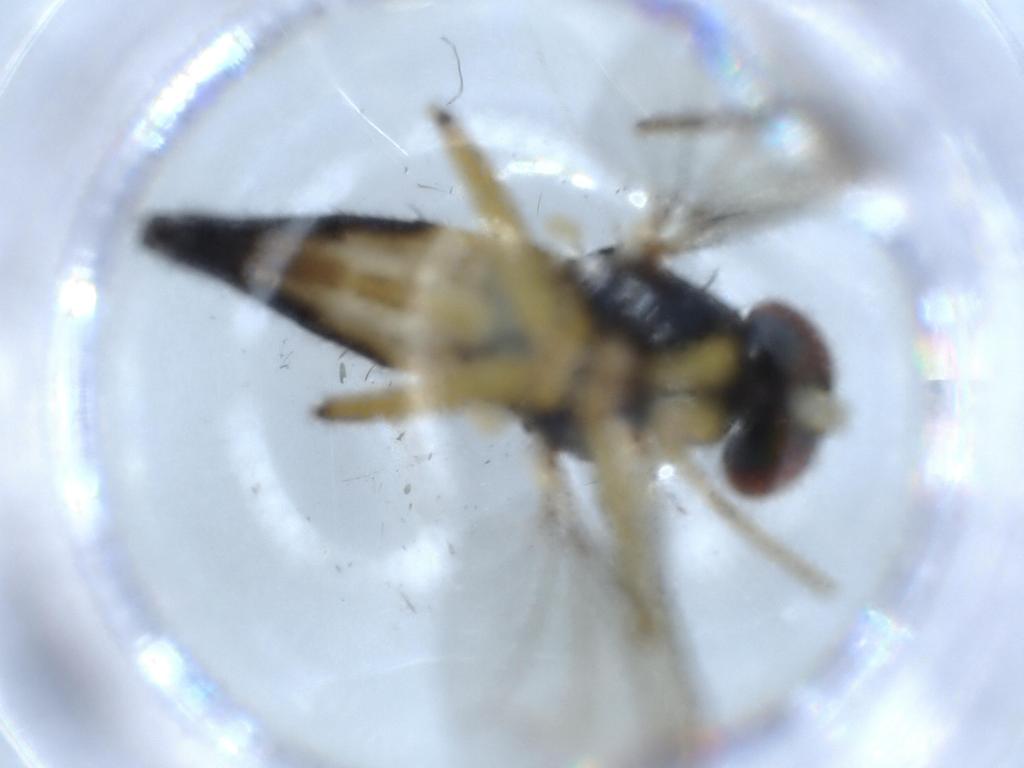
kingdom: Animalia
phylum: Arthropoda
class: Insecta
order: Diptera
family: Dolichopodidae
